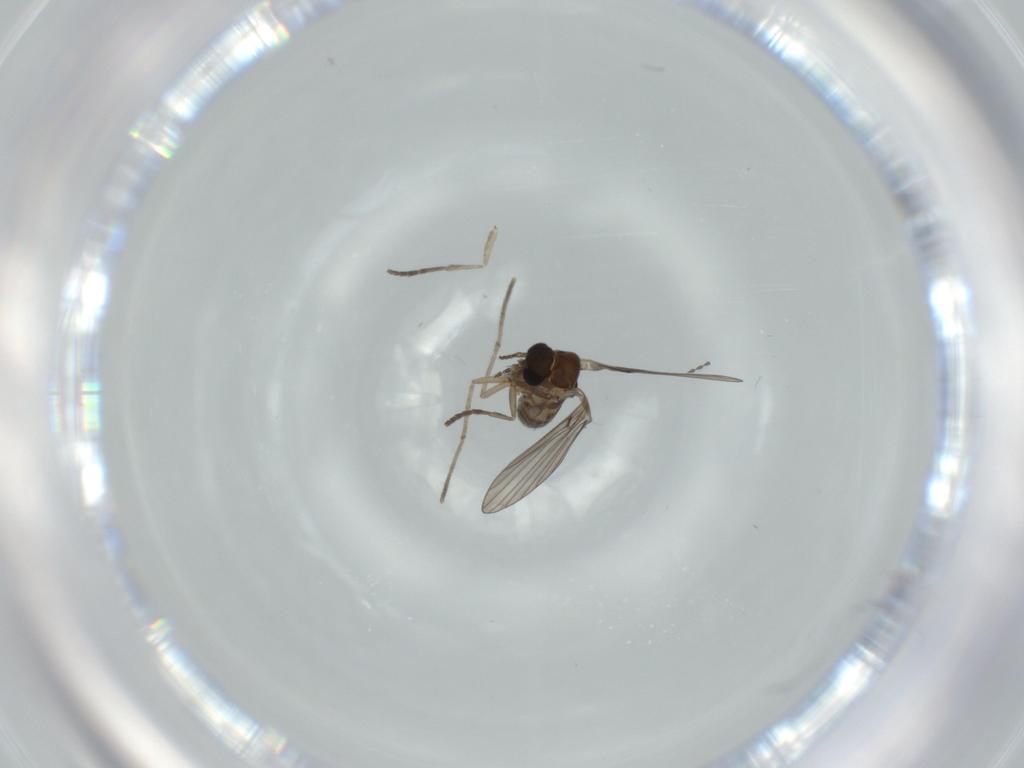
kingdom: Animalia
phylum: Arthropoda
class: Insecta
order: Diptera
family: Psychodidae
